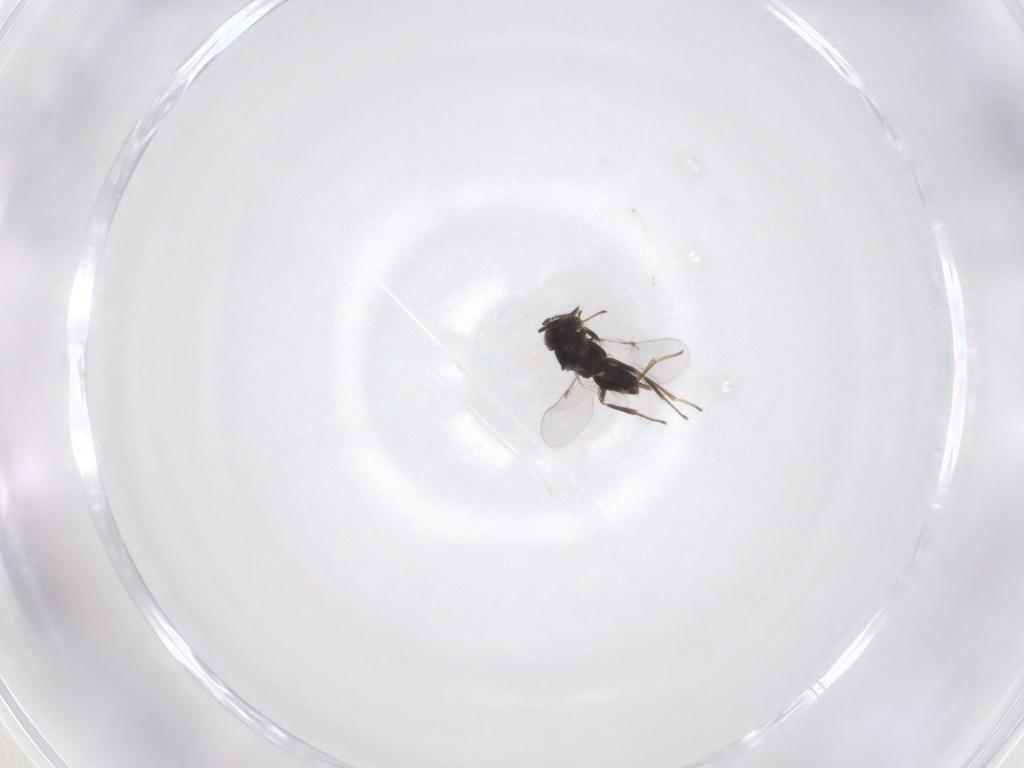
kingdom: Animalia
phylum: Arthropoda
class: Insecta
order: Hymenoptera
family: Encyrtidae
